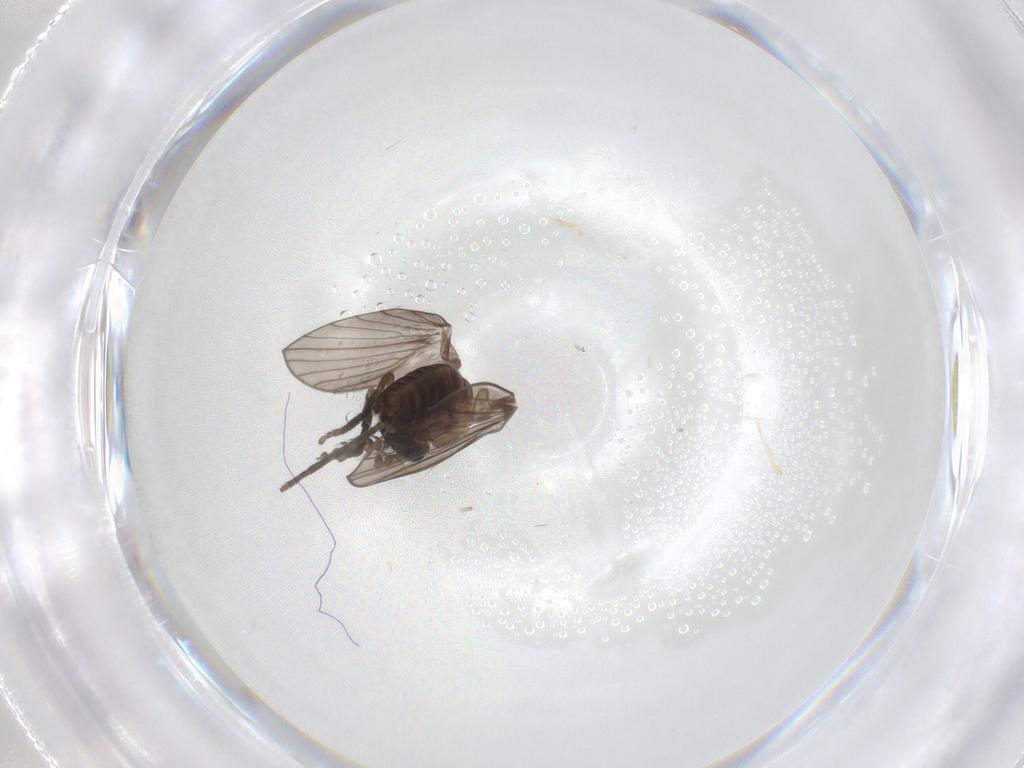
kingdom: Animalia
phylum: Arthropoda
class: Insecta
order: Diptera
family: Psychodidae
